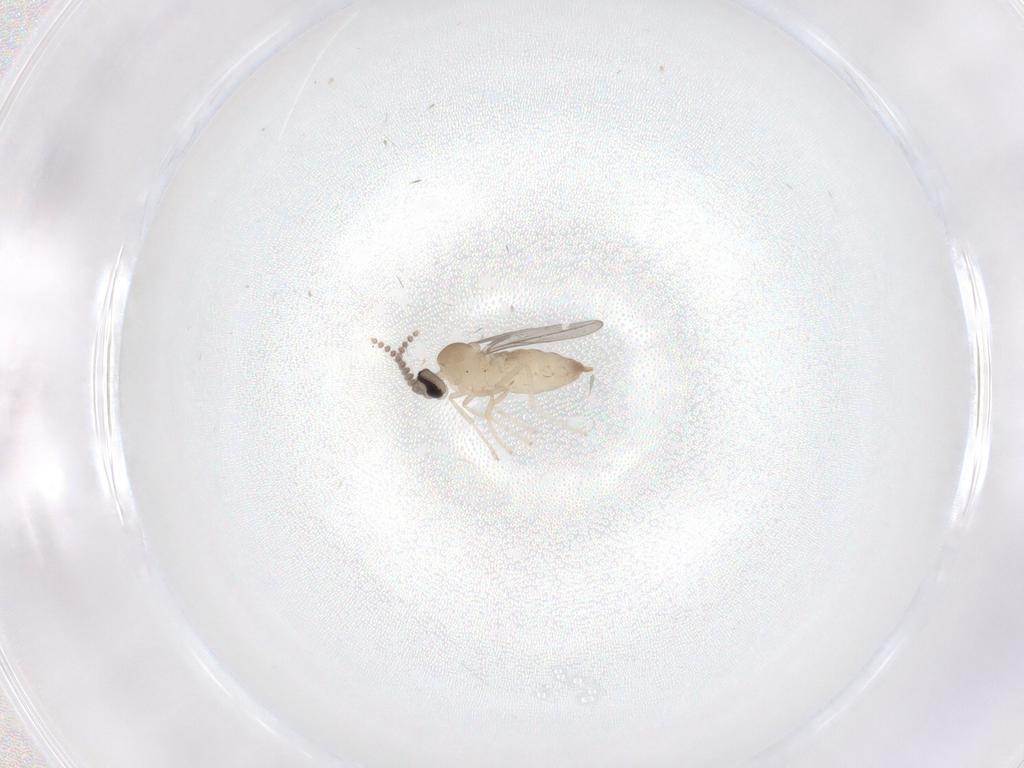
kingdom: Animalia
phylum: Arthropoda
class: Insecta
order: Diptera
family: Cecidomyiidae
